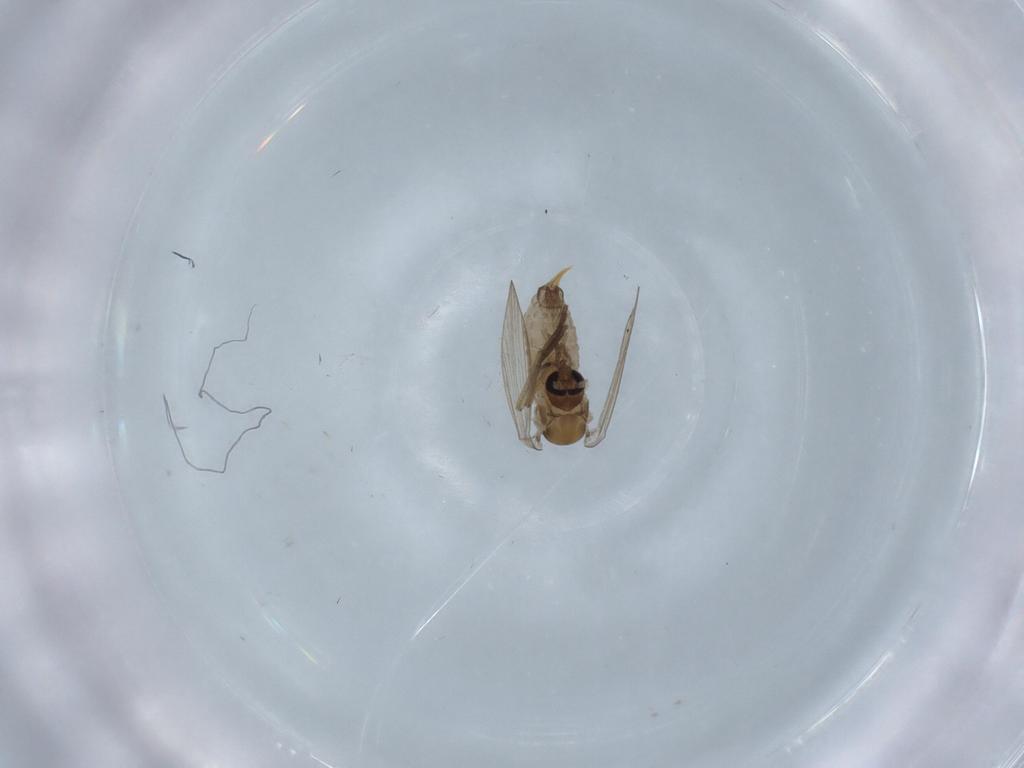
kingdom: Animalia
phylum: Arthropoda
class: Insecta
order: Diptera
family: Psychodidae
